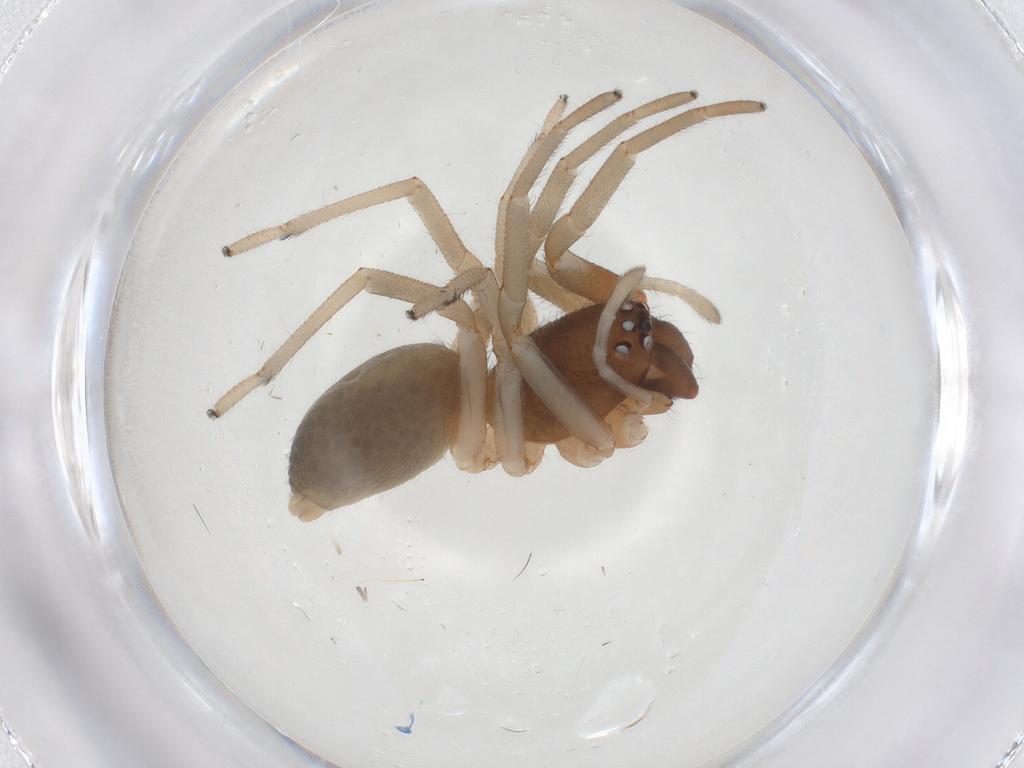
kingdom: Animalia
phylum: Arthropoda
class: Arachnida
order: Araneae
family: Trachelidae
